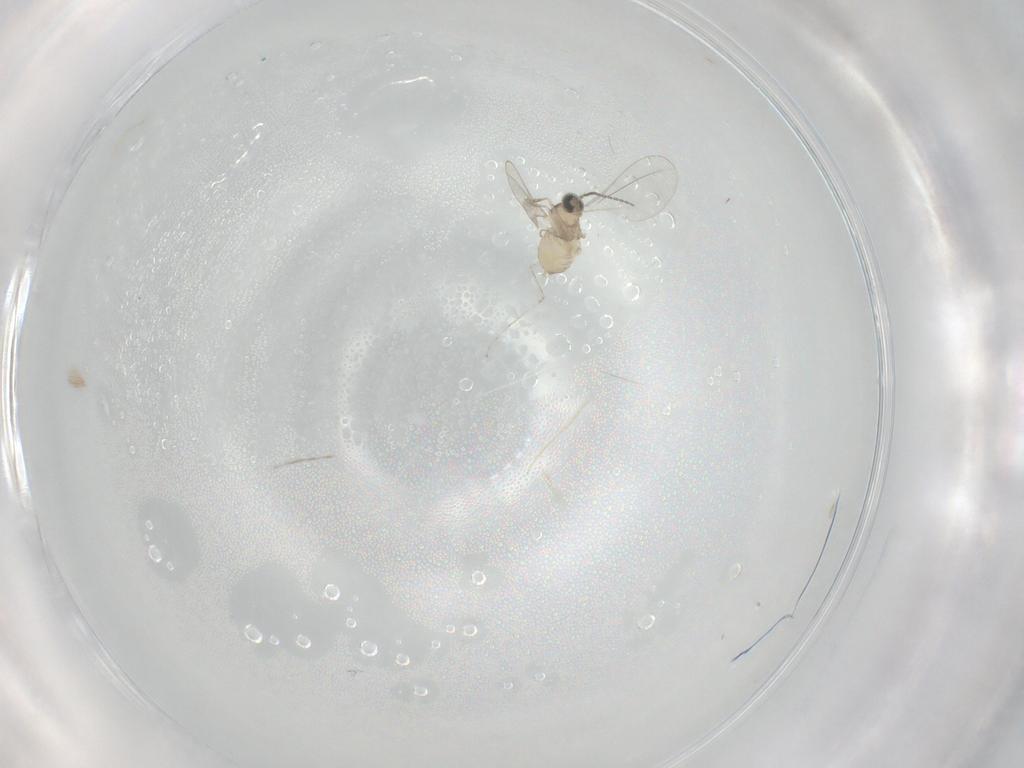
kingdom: Animalia
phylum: Arthropoda
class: Insecta
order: Diptera
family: Cecidomyiidae
